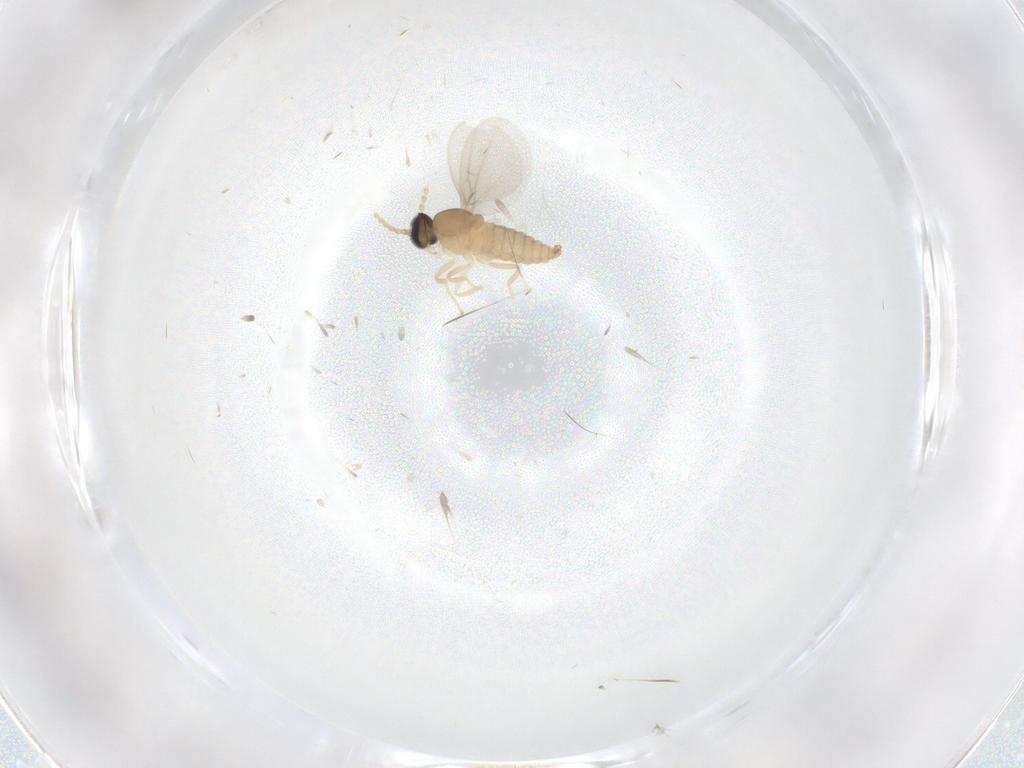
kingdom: Animalia
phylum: Arthropoda
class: Insecta
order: Diptera
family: Cecidomyiidae
